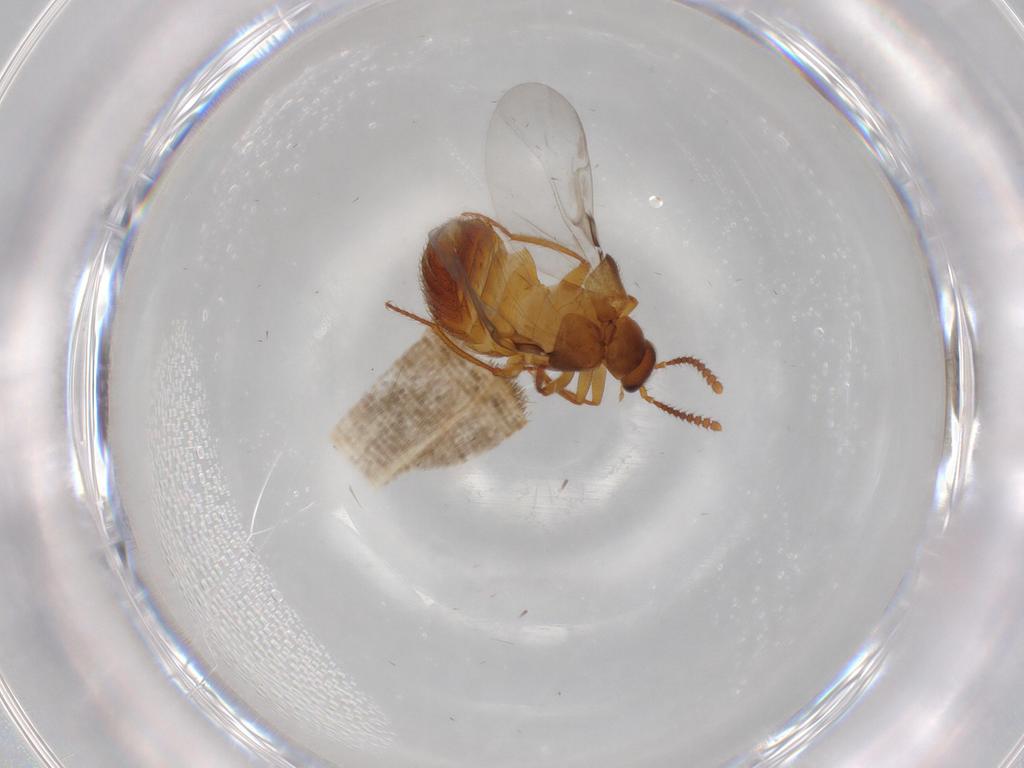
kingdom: Animalia
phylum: Arthropoda
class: Insecta
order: Coleoptera
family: Staphylinidae
